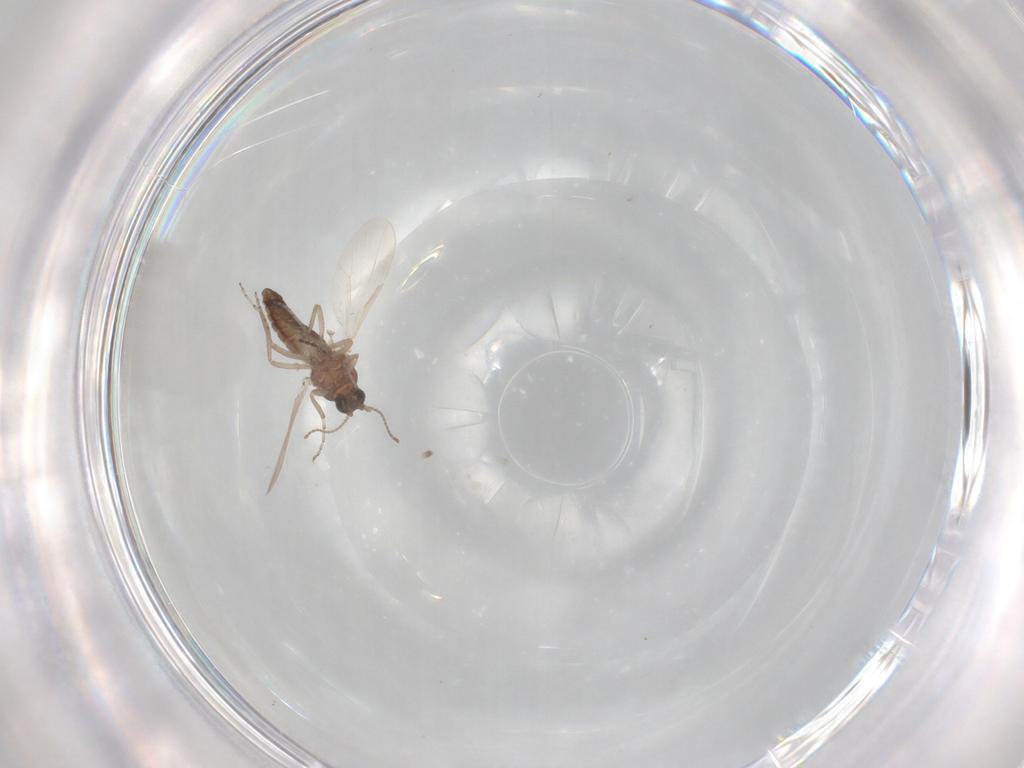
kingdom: Animalia
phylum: Arthropoda
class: Insecta
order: Diptera
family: Ceratopogonidae
